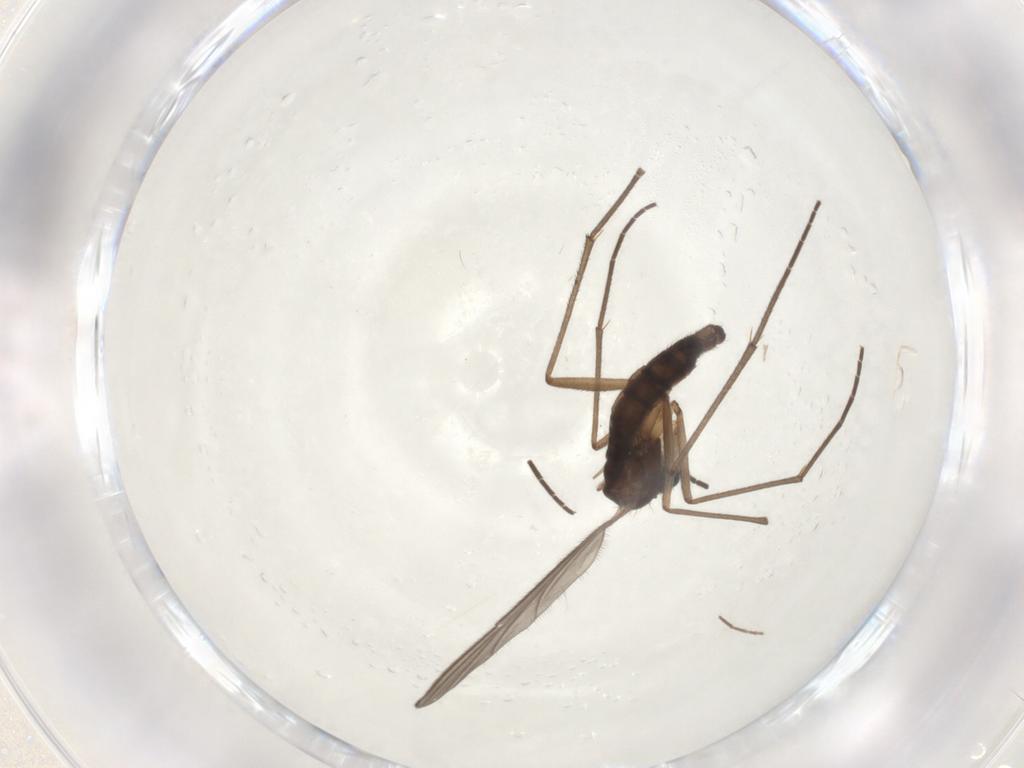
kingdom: Animalia
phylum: Arthropoda
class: Insecta
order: Diptera
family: Sciaridae
